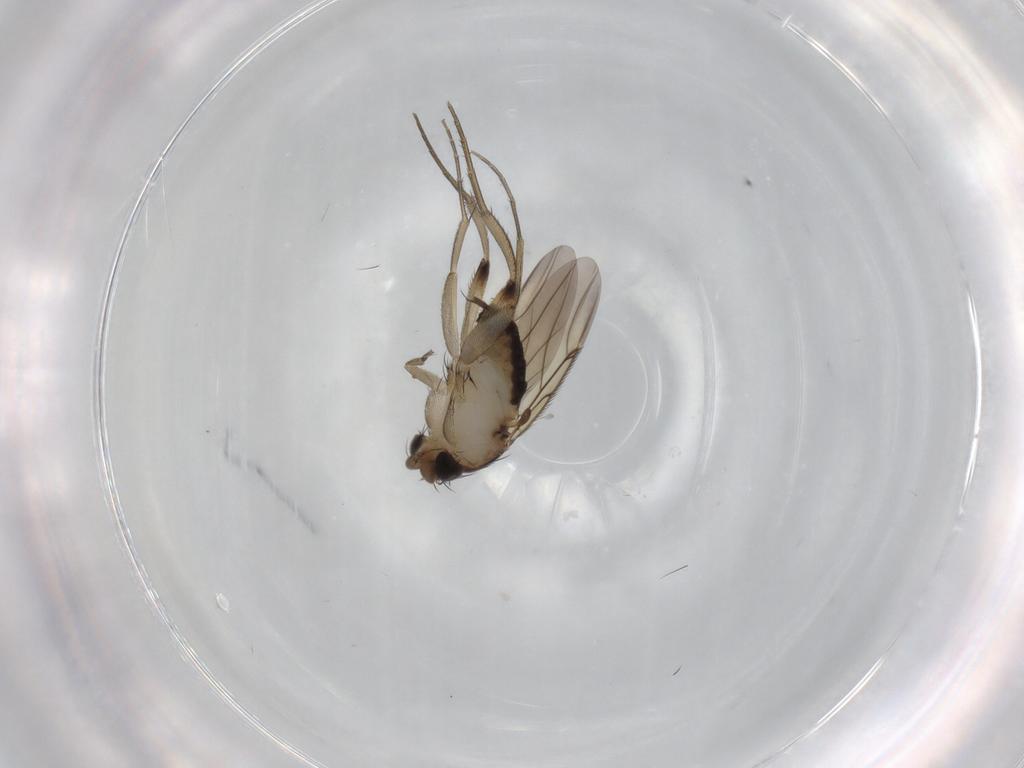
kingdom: Animalia
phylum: Arthropoda
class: Insecta
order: Diptera
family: Phoridae
